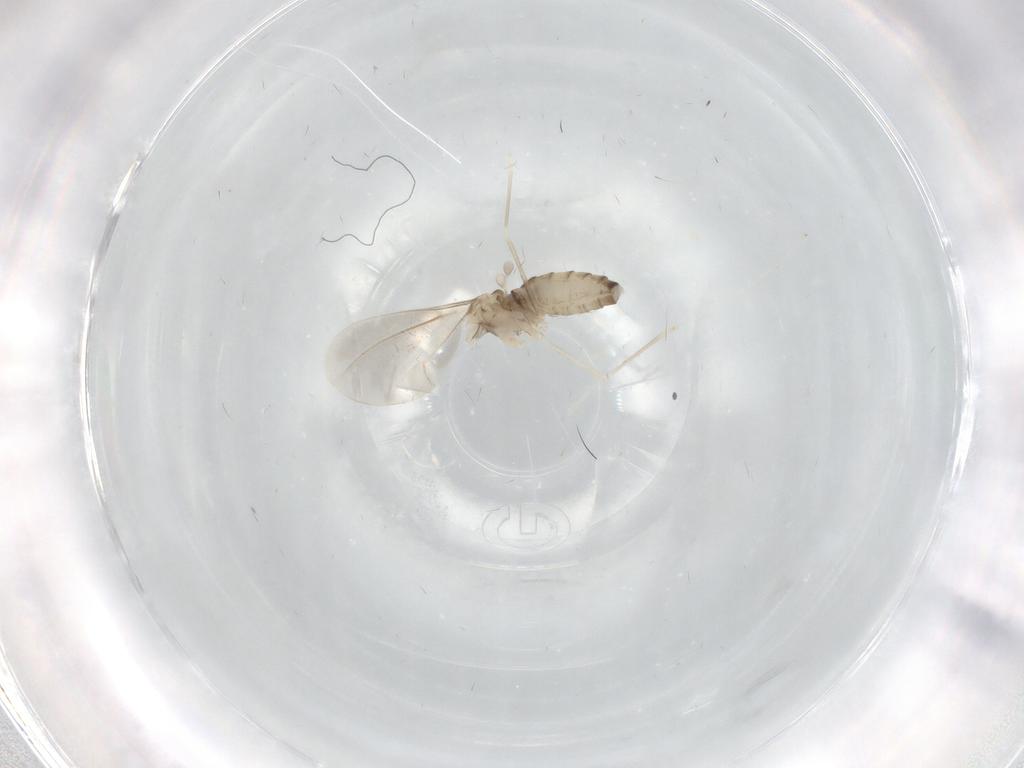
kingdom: Animalia
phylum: Arthropoda
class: Insecta
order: Diptera
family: Cecidomyiidae
